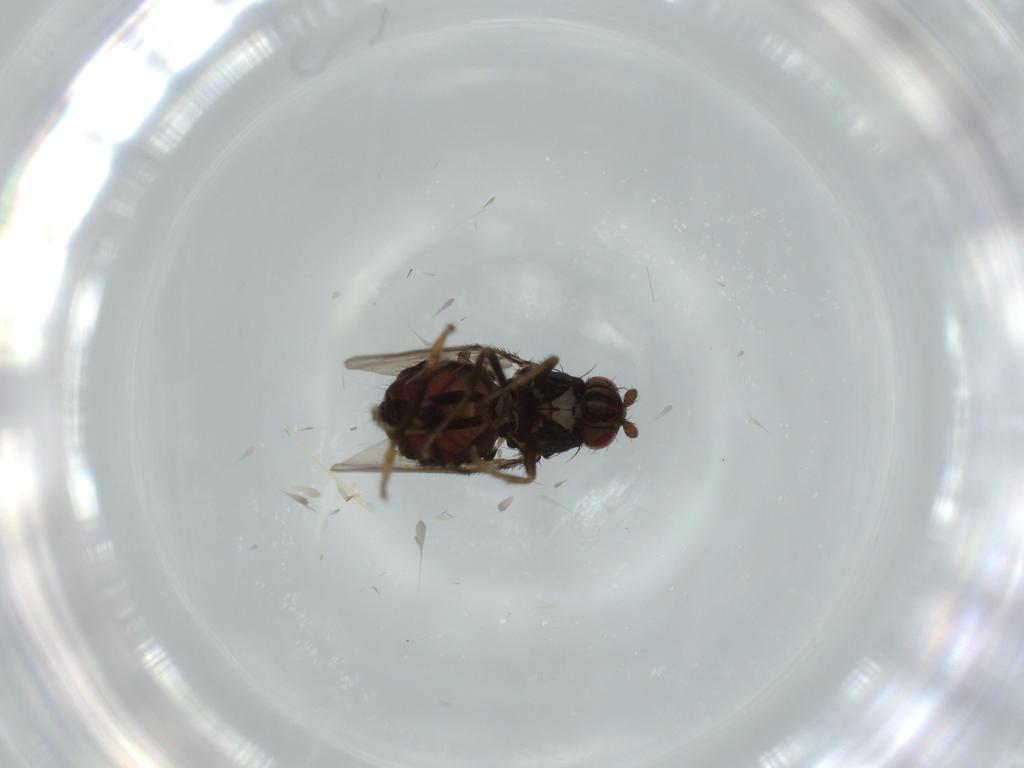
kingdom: Animalia
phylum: Arthropoda
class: Insecta
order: Diptera
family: Sphaeroceridae
